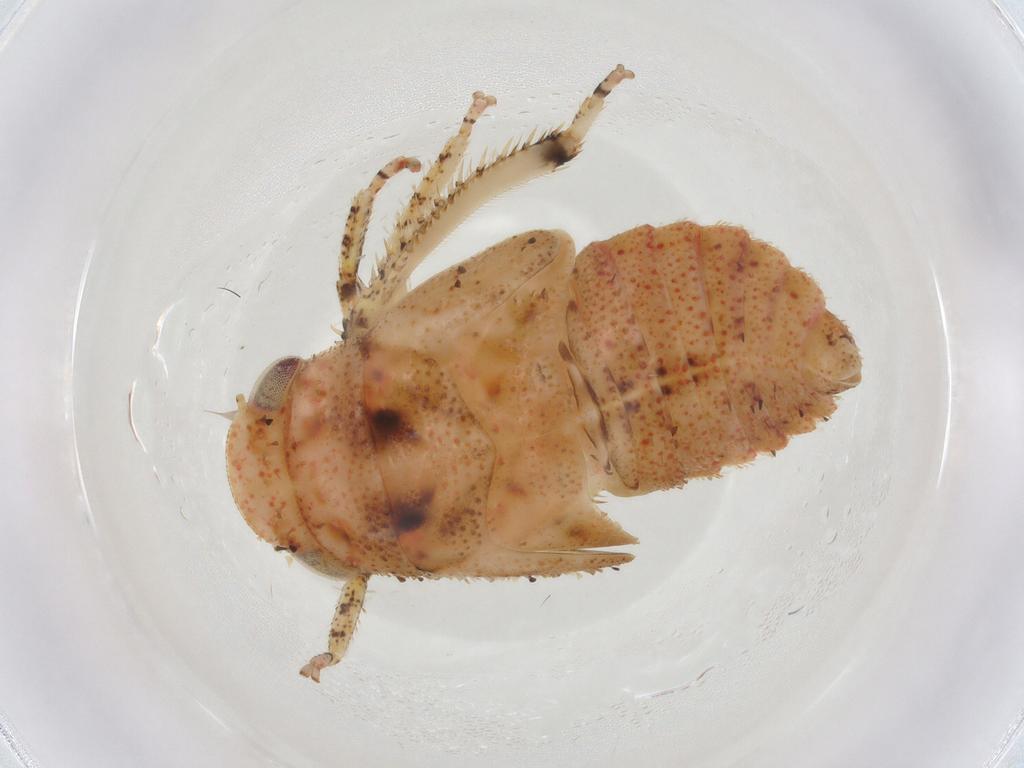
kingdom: Animalia
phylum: Arthropoda
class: Insecta
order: Hemiptera
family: Cicadellidae
